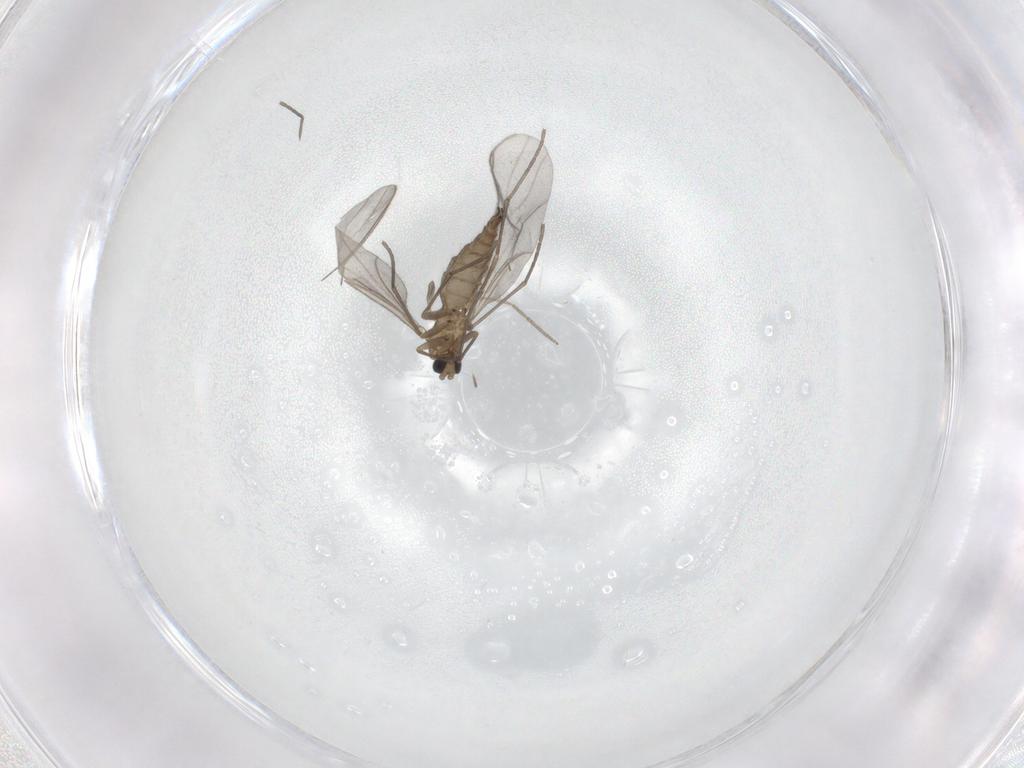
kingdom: Animalia
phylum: Arthropoda
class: Insecta
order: Diptera
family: Sciaridae
